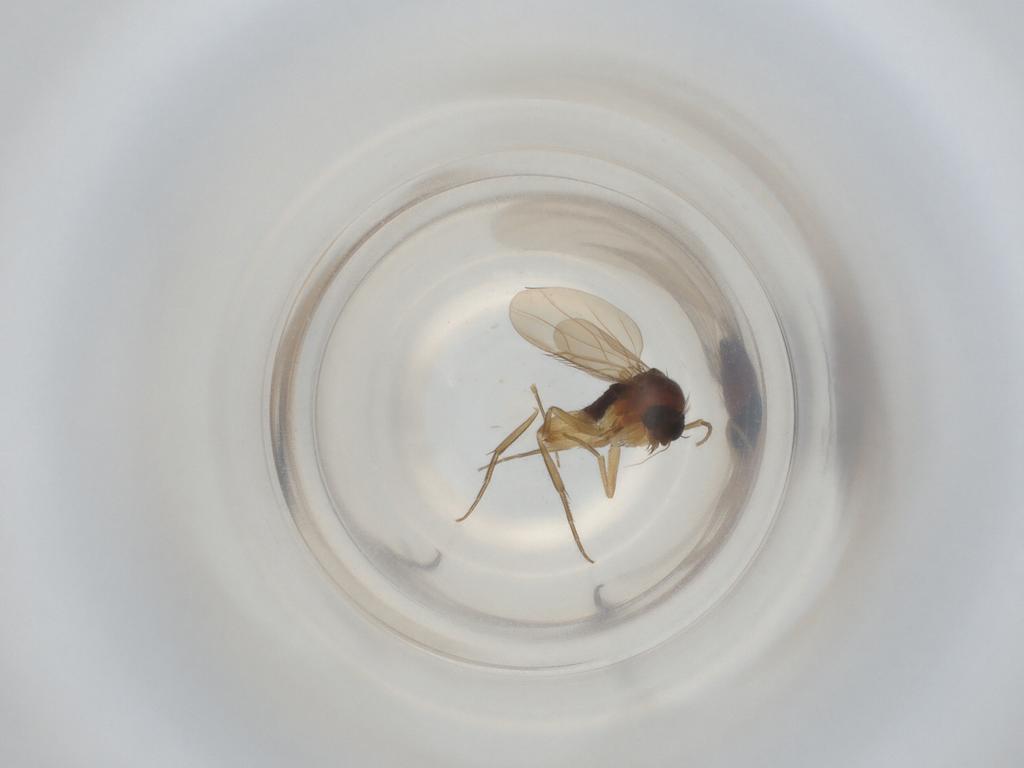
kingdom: Animalia
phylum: Arthropoda
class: Insecta
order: Diptera
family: Phoridae
